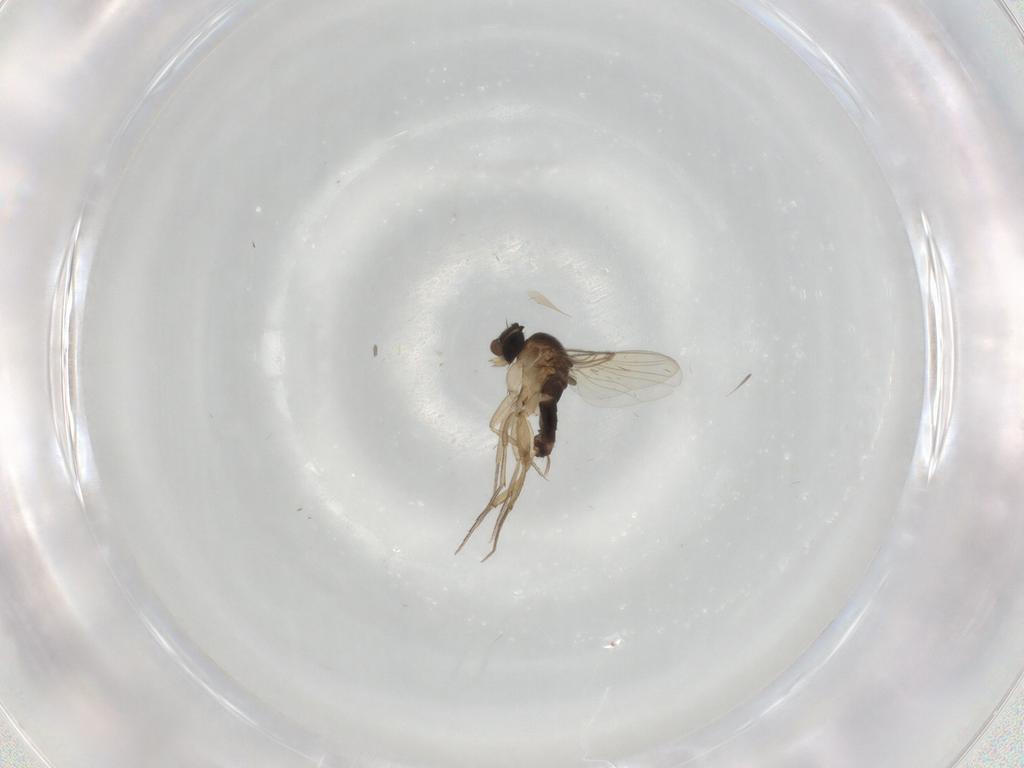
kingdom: Animalia
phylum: Arthropoda
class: Insecta
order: Diptera
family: Phoridae
